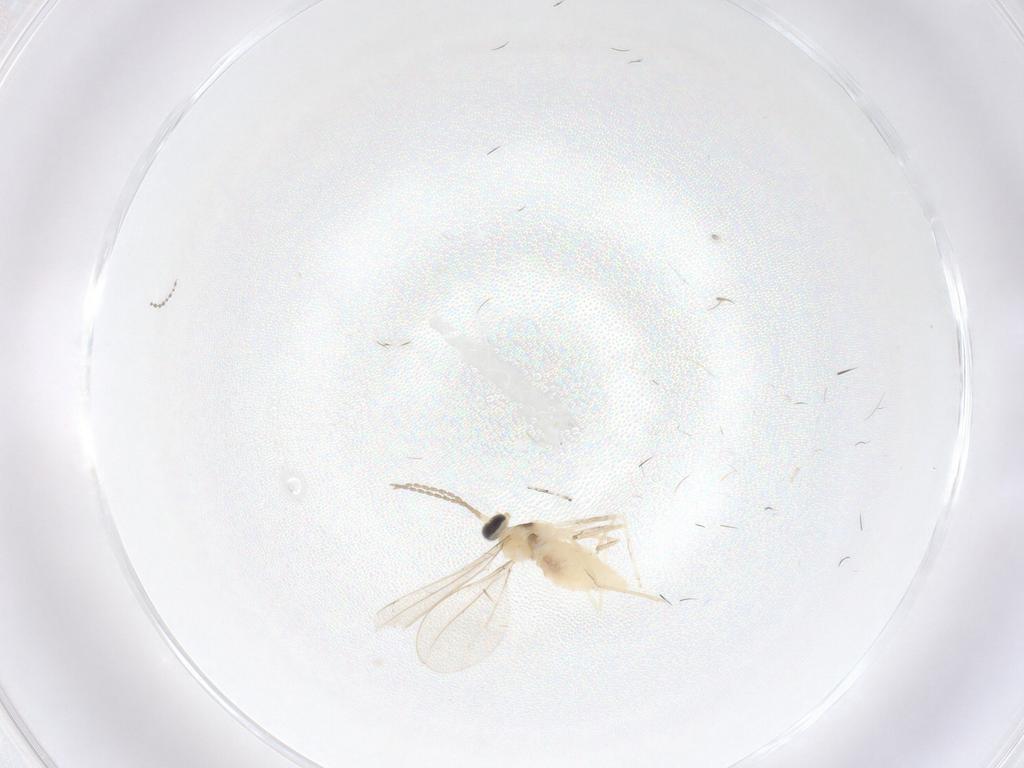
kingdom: Animalia
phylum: Arthropoda
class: Insecta
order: Diptera
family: Cecidomyiidae
